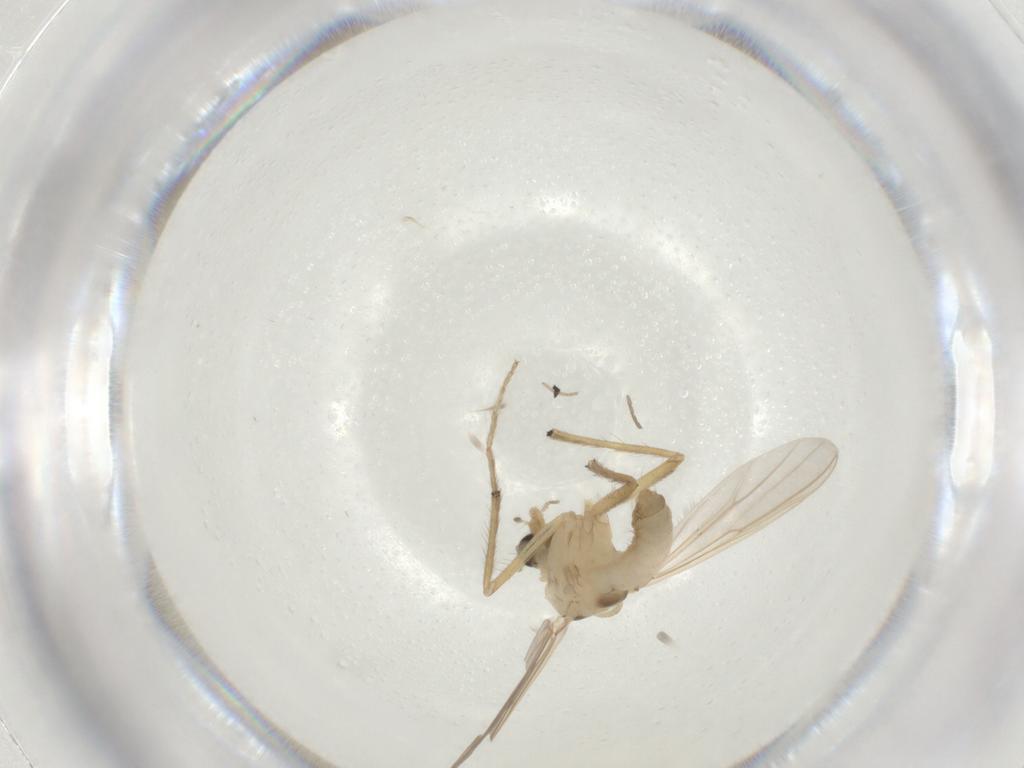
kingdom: Animalia
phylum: Arthropoda
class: Insecta
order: Diptera
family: Chironomidae
